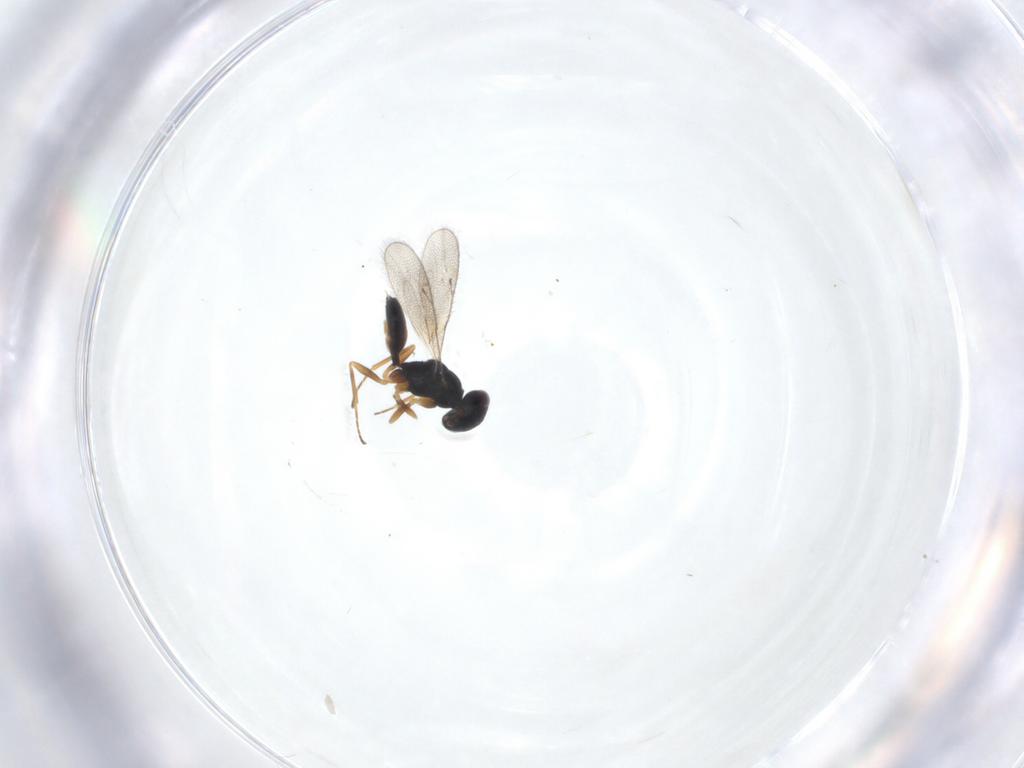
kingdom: Animalia
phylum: Arthropoda
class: Insecta
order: Hymenoptera
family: Pteromalidae
